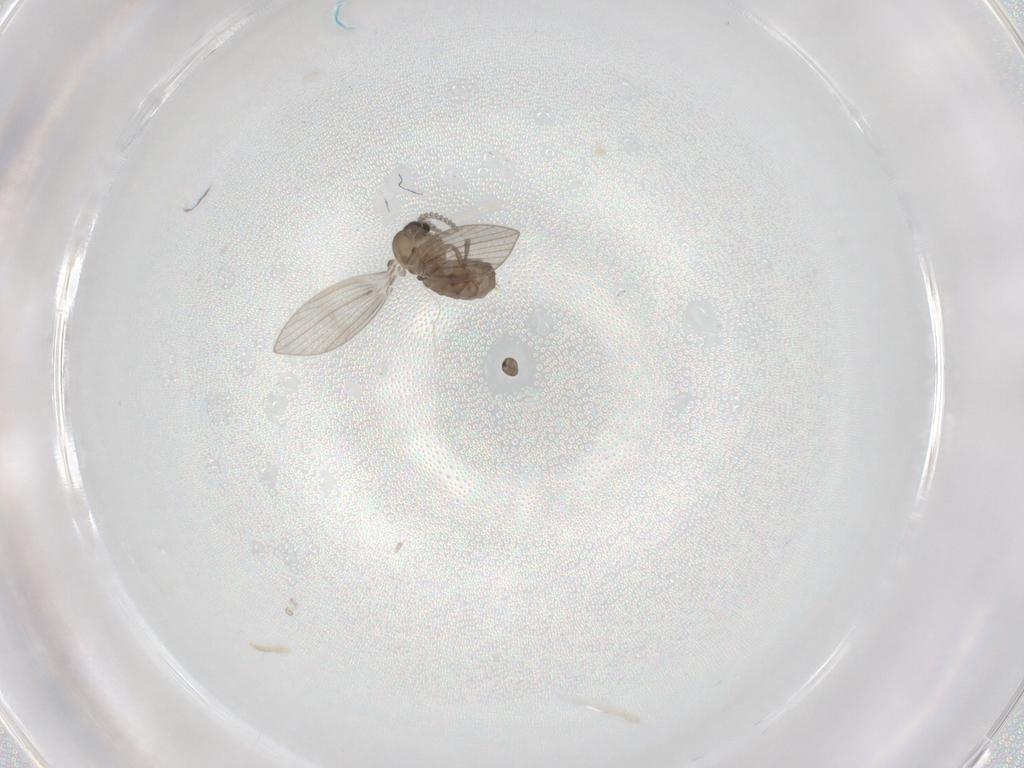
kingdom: Animalia
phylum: Arthropoda
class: Insecta
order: Diptera
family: Psychodidae
